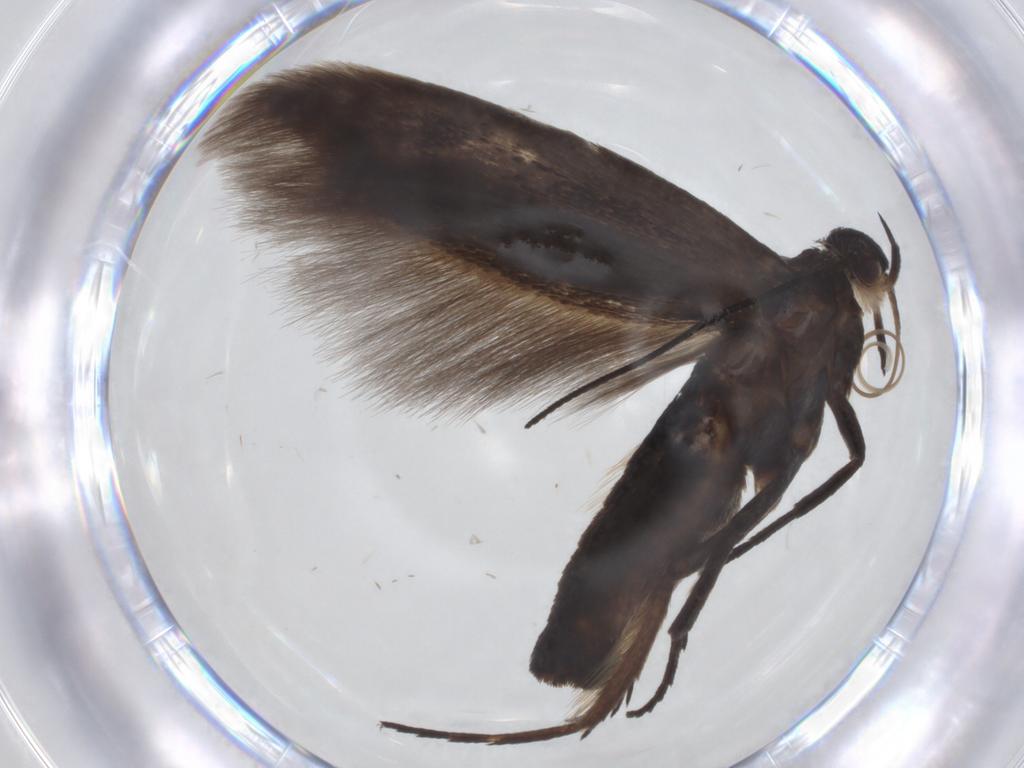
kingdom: Animalia
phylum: Arthropoda
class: Insecta
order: Lepidoptera
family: Scythrididae
